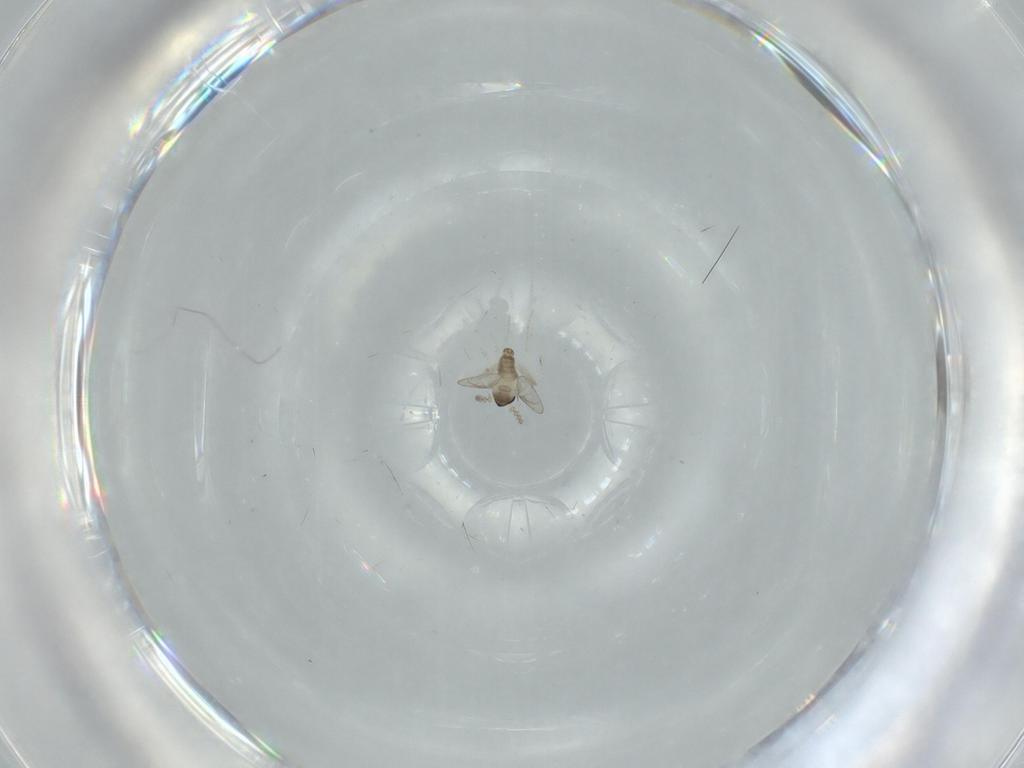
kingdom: Animalia
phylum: Arthropoda
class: Insecta
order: Diptera
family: Cecidomyiidae
